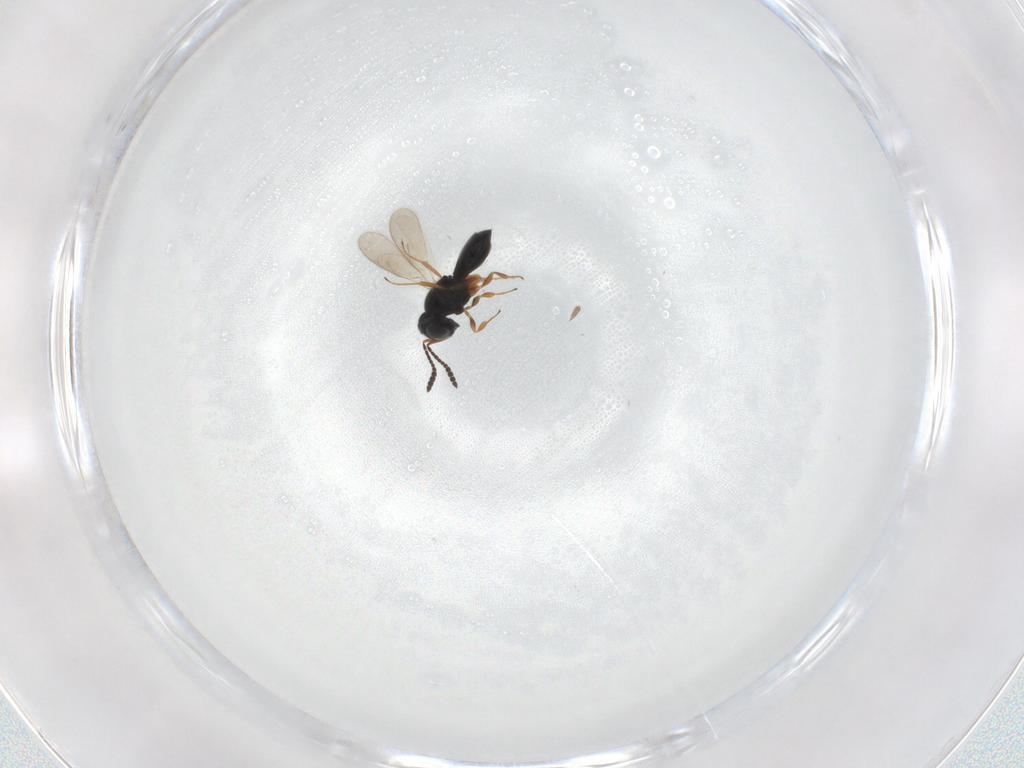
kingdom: Animalia
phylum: Arthropoda
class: Insecta
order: Hymenoptera
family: Scelionidae
